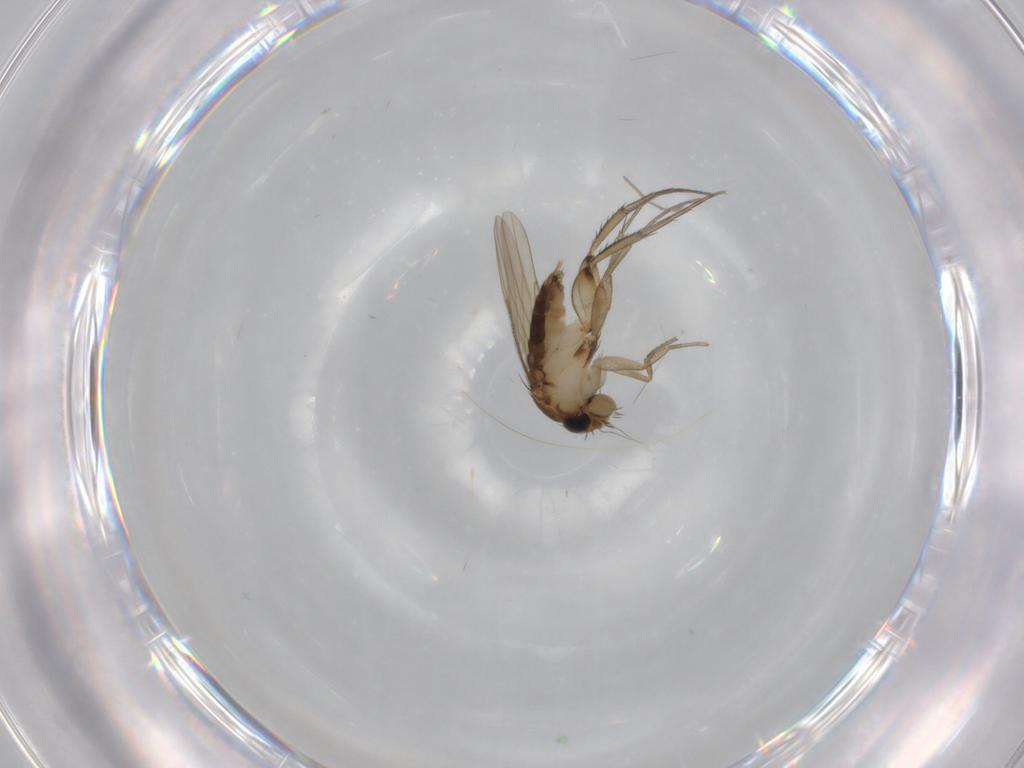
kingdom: Animalia
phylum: Arthropoda
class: Insecta
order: Diptera
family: Phoridae
